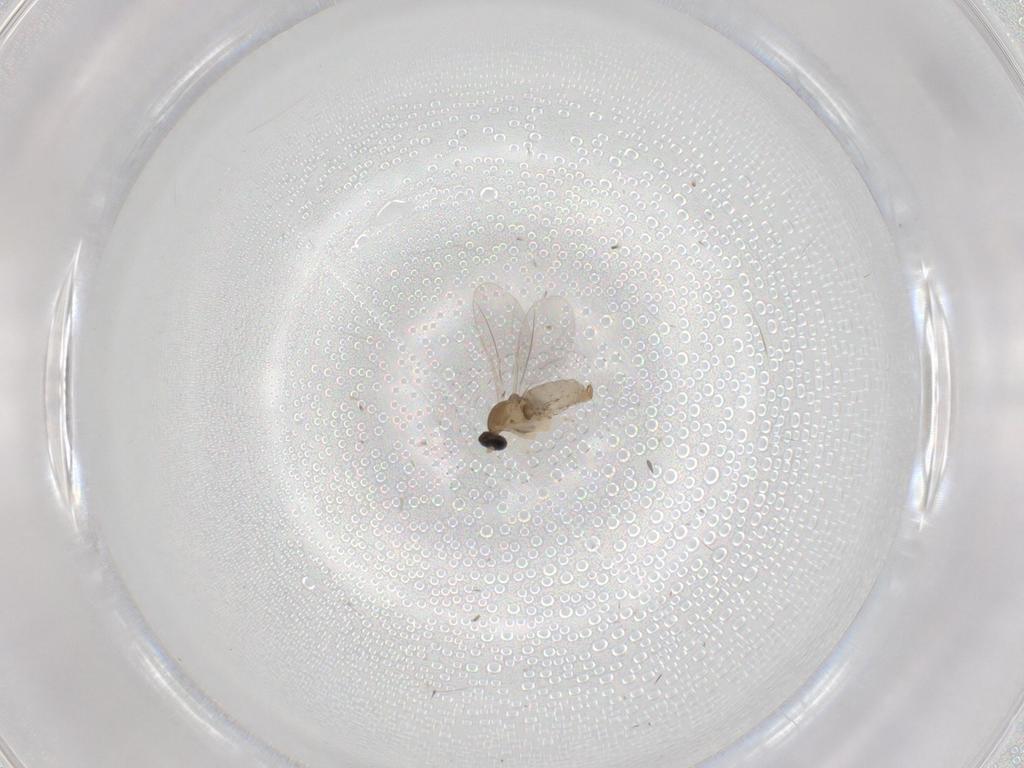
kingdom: Animalia
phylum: Arthropoda
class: Insecta
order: Diptera
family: Cecidomyiidae
